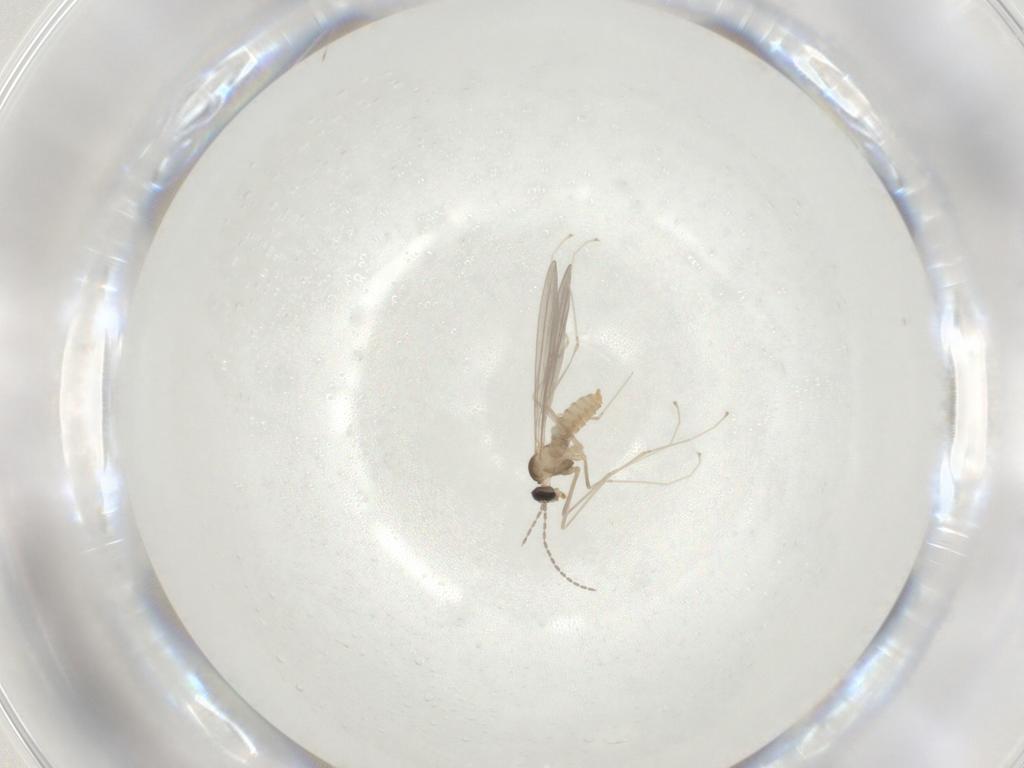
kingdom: Animalia
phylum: Arthropoda
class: Insecta
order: Diptera
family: Cecidomyiidae
